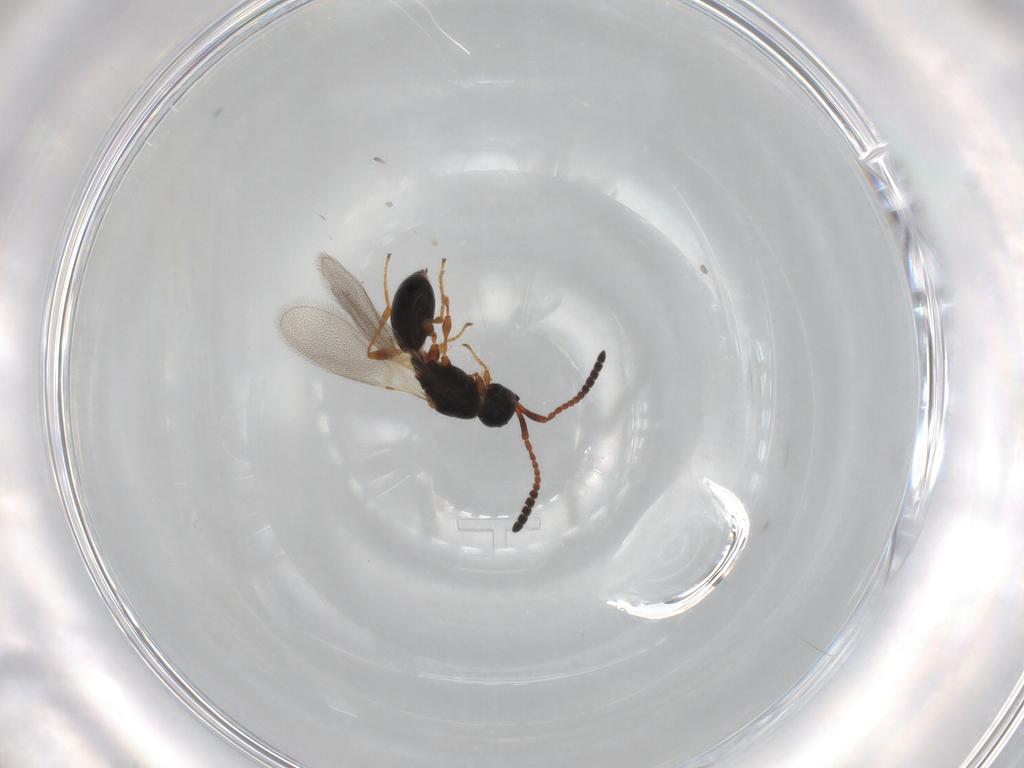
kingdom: Animalia
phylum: Arthropoda
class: Insecta
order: Hymenoptera
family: Diapriidae
